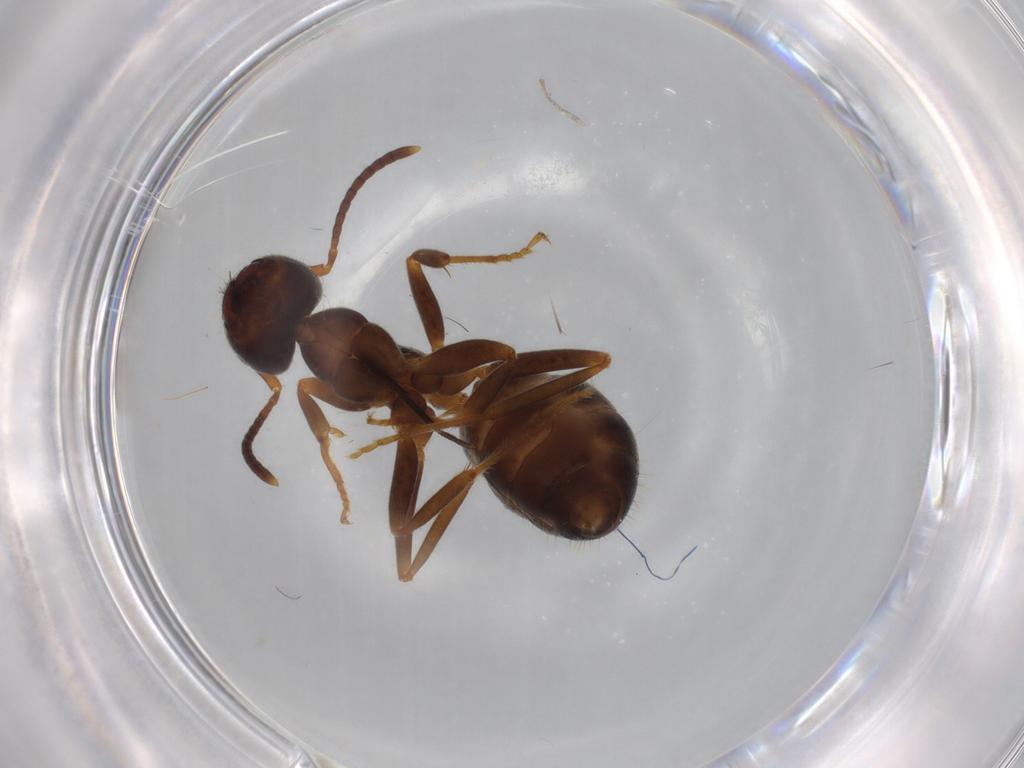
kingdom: Animalia
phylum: Arthropoda
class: Insecta
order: Hymenoptera
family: Formicidae
